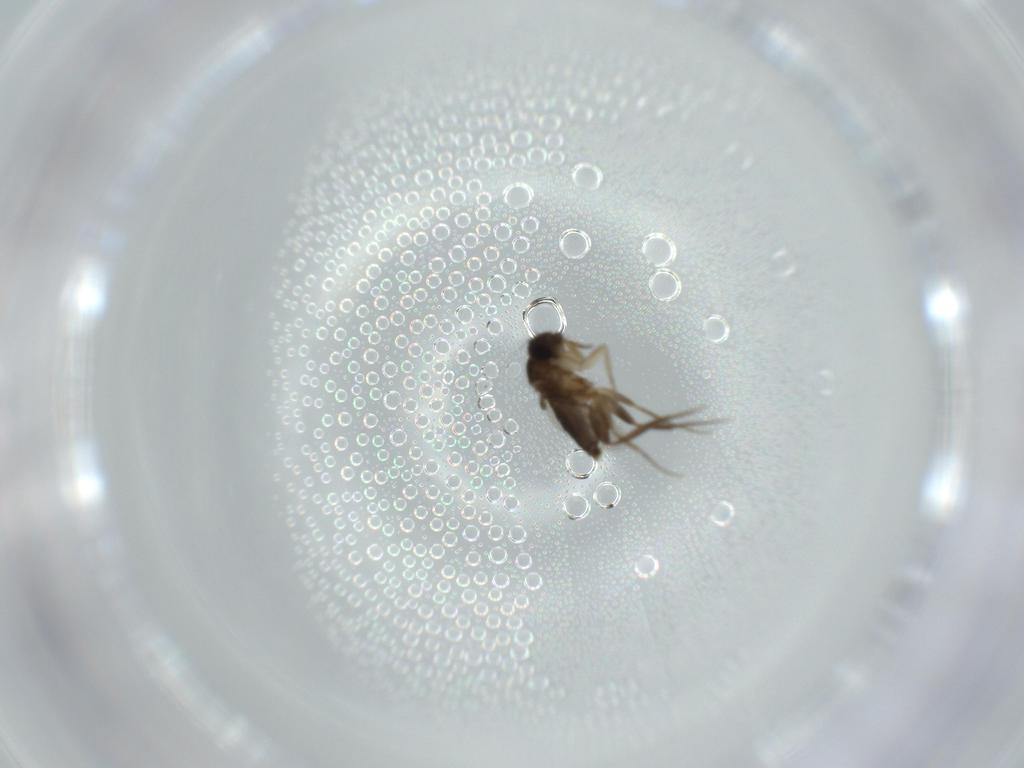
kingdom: Animalia
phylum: Arthropoda
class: Insecta
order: Diptera
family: Phoridae
